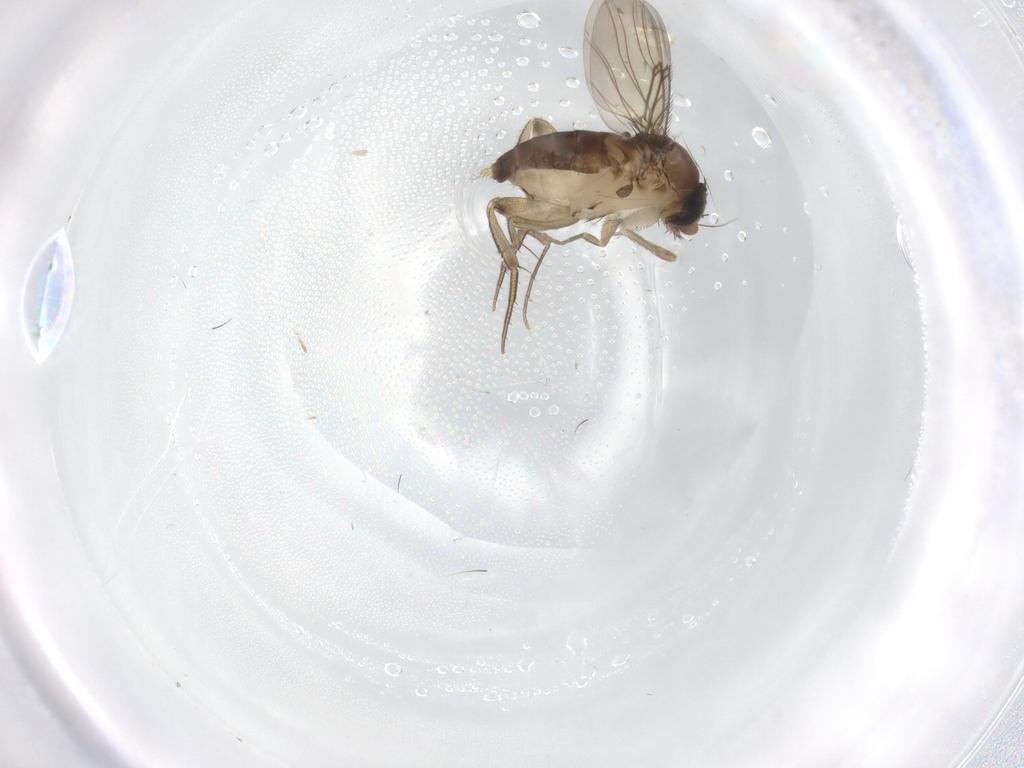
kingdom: Animalia
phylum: Arthropoda
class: Insecta
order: Diptera
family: Phoridae
